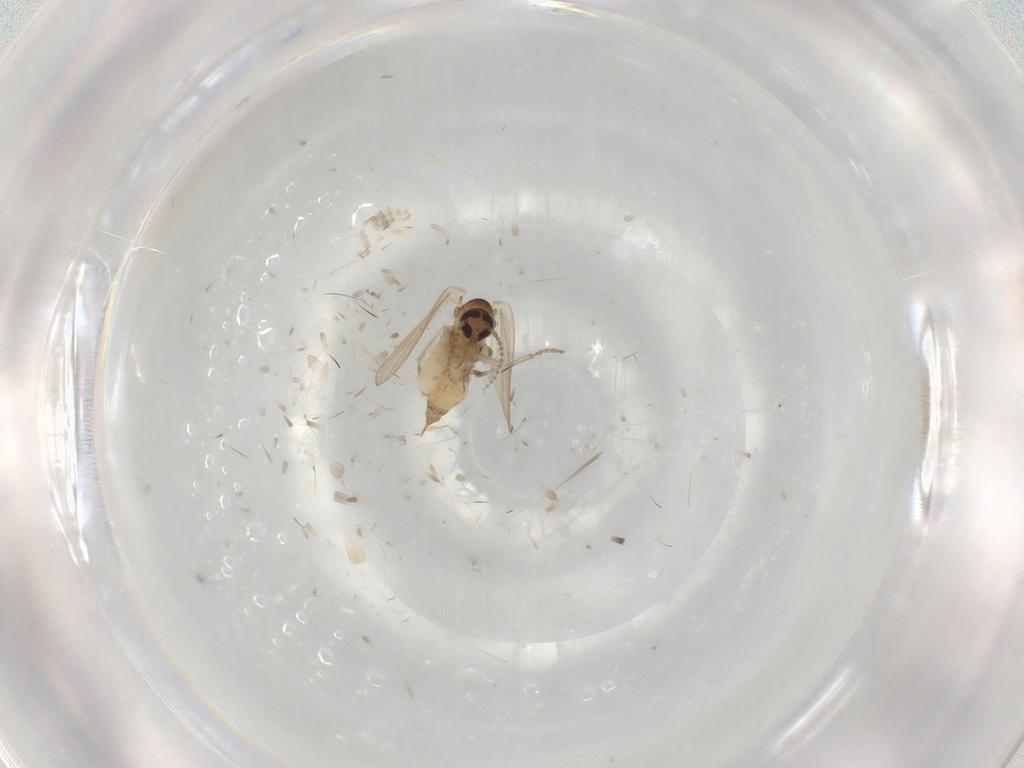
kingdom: Animalia
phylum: Arthropoda
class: Insecta
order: Diptera
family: Psychodidae
